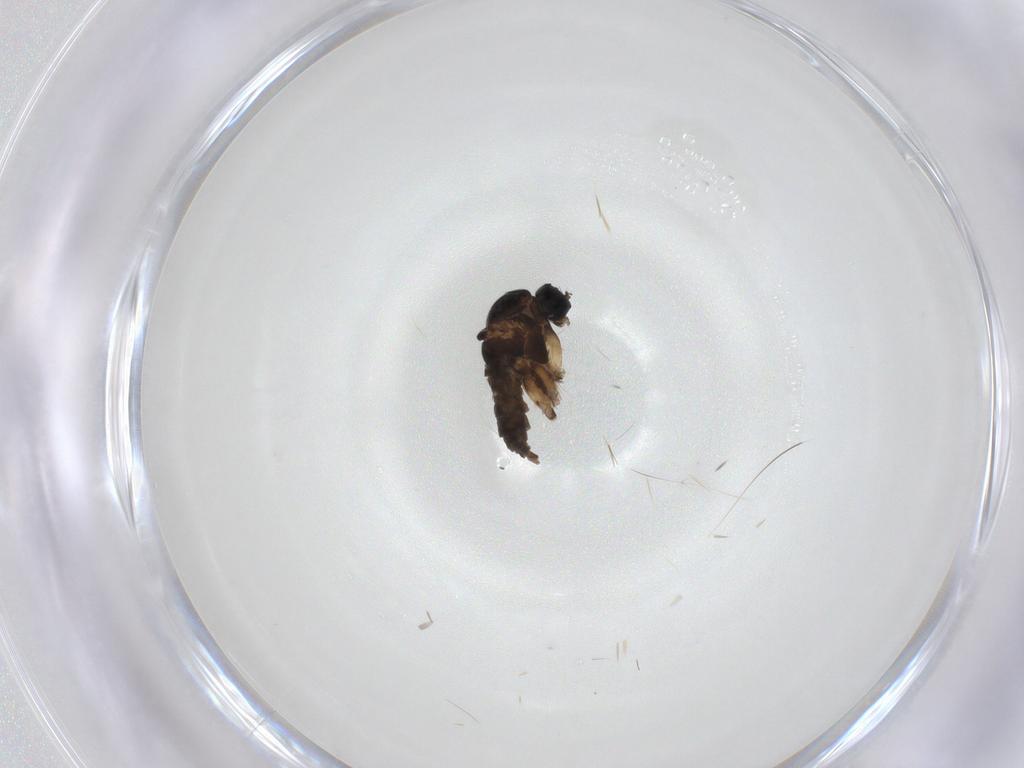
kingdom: Animalia
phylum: Arthropoda
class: Insecta
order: Diptera
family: Sciaridae
